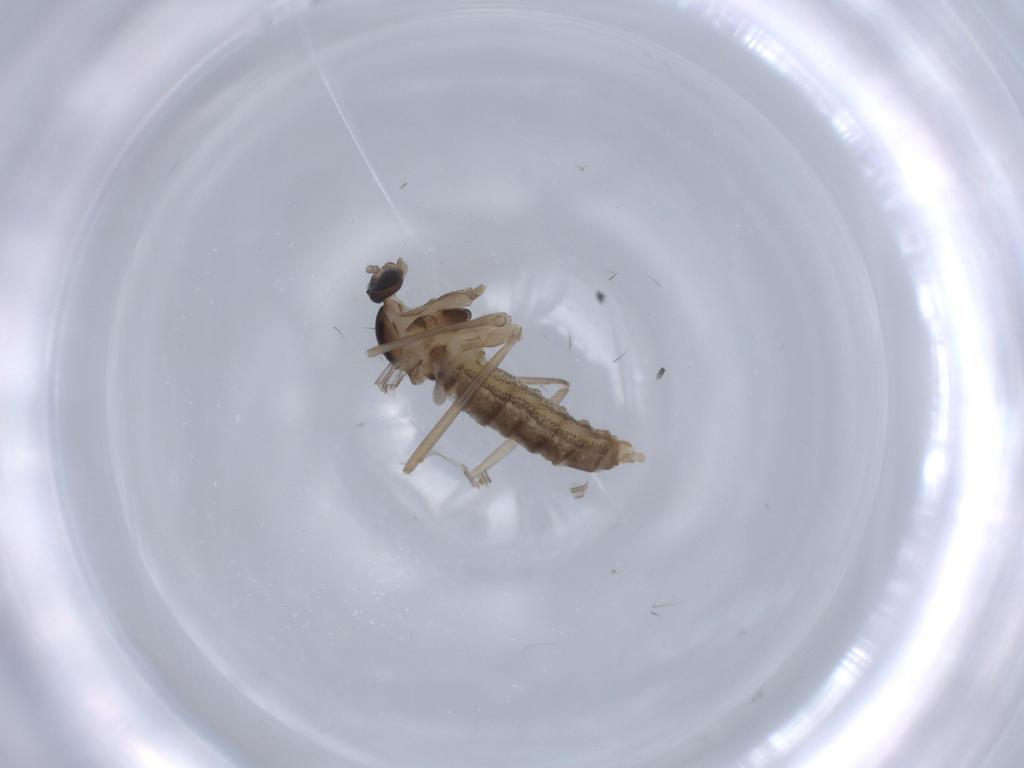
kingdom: Animalia
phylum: Arthropoda
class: Insecta
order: Diptera
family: Cecidomyiidae
